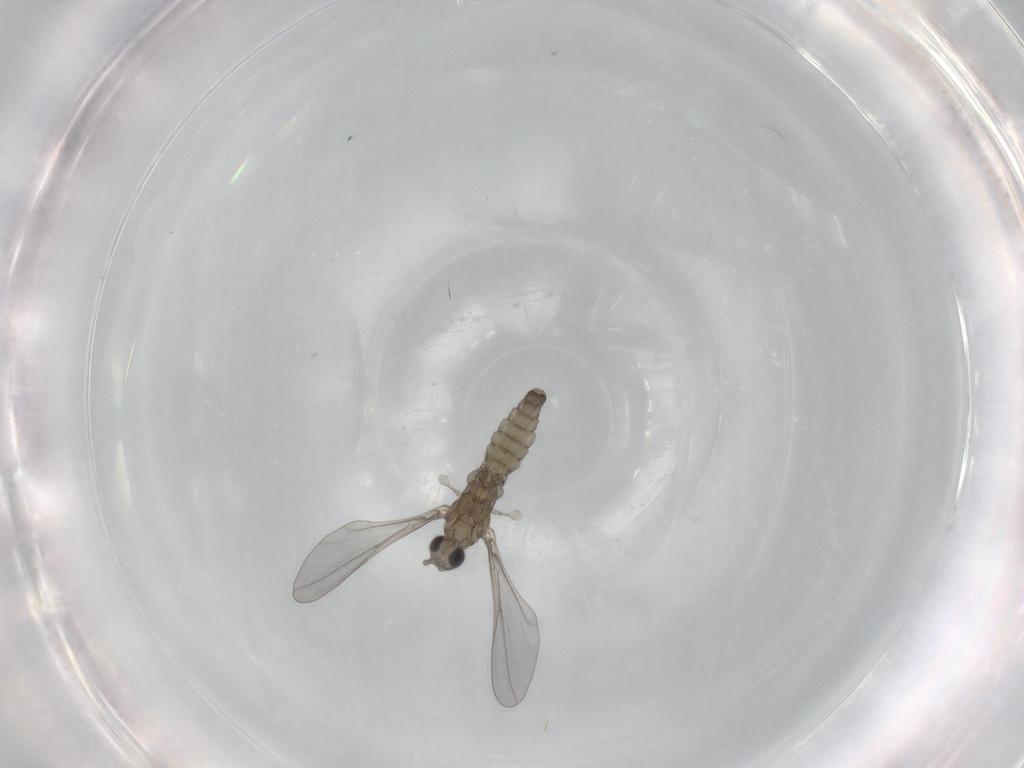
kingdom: Animalia
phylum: Arthropoda
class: Insecta
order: Diptera
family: Cecidomyiidae
